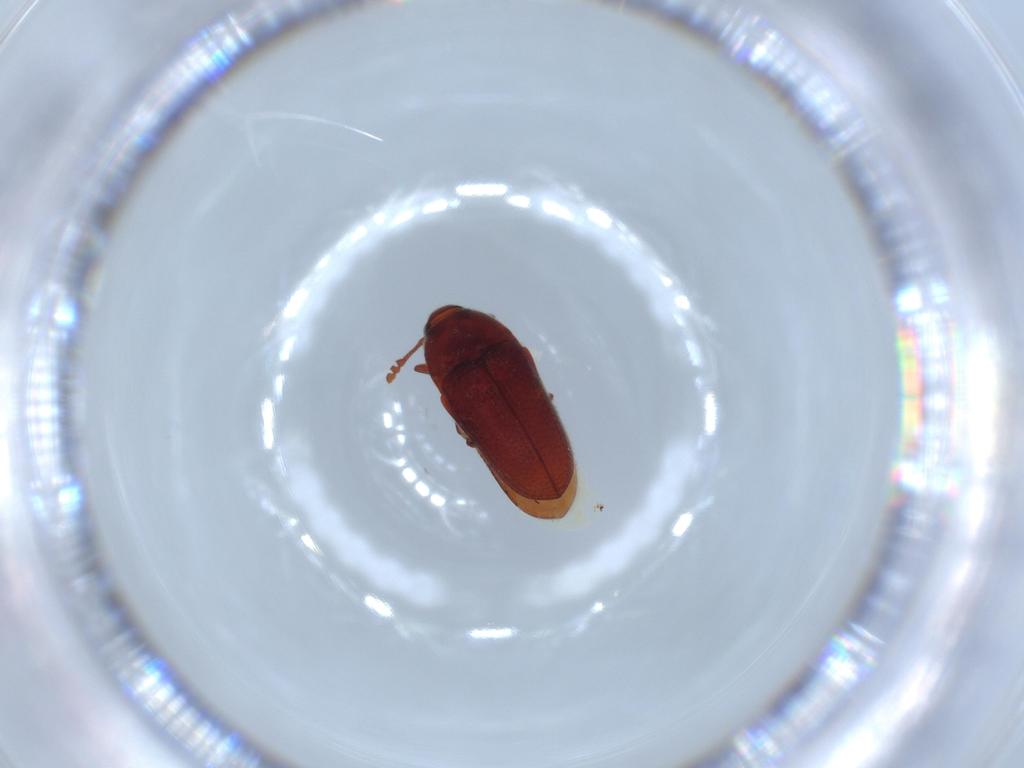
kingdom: Animalia
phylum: Arthropoda
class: Insecta
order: Coleoptera
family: Throscidae
